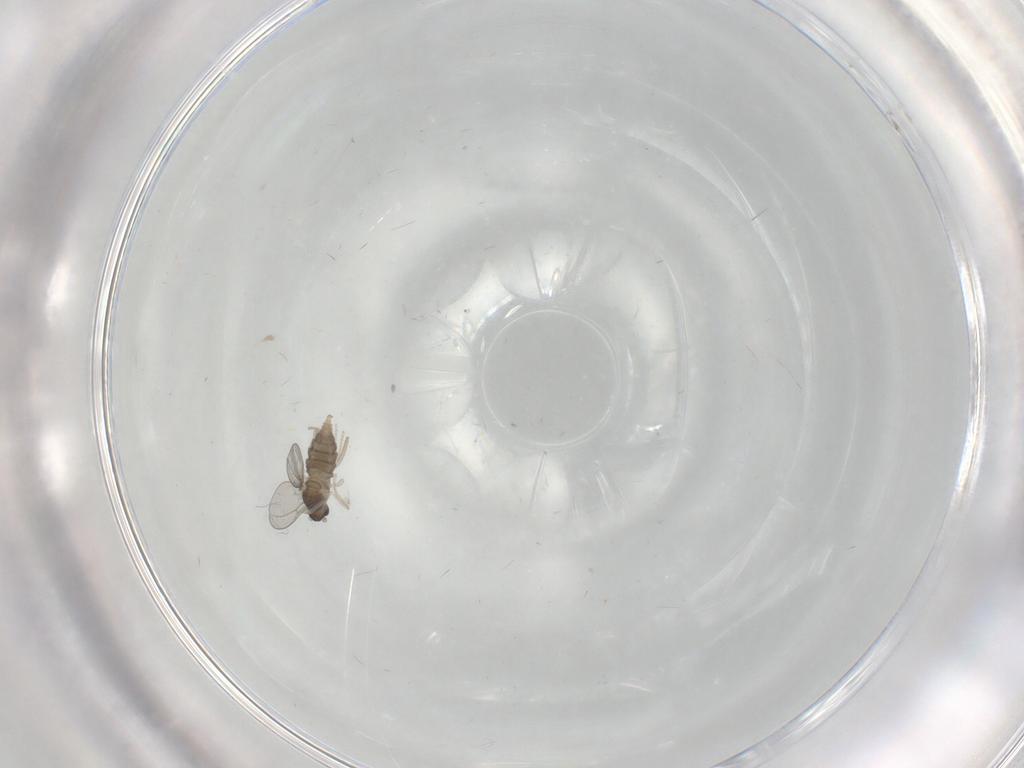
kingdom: Animalia
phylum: Arthropoda
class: Insecta
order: Diptera
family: Cecidomyiidae
